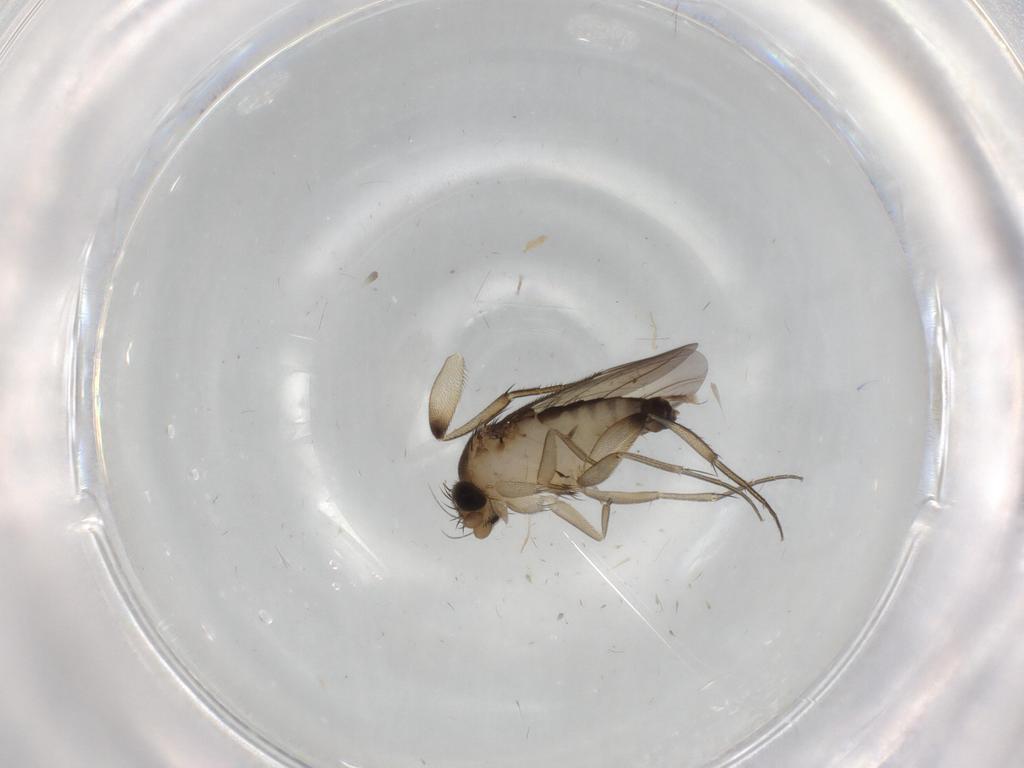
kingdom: Animalia
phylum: Arthropoda
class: Insecta
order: Diptera
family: Phoridae
